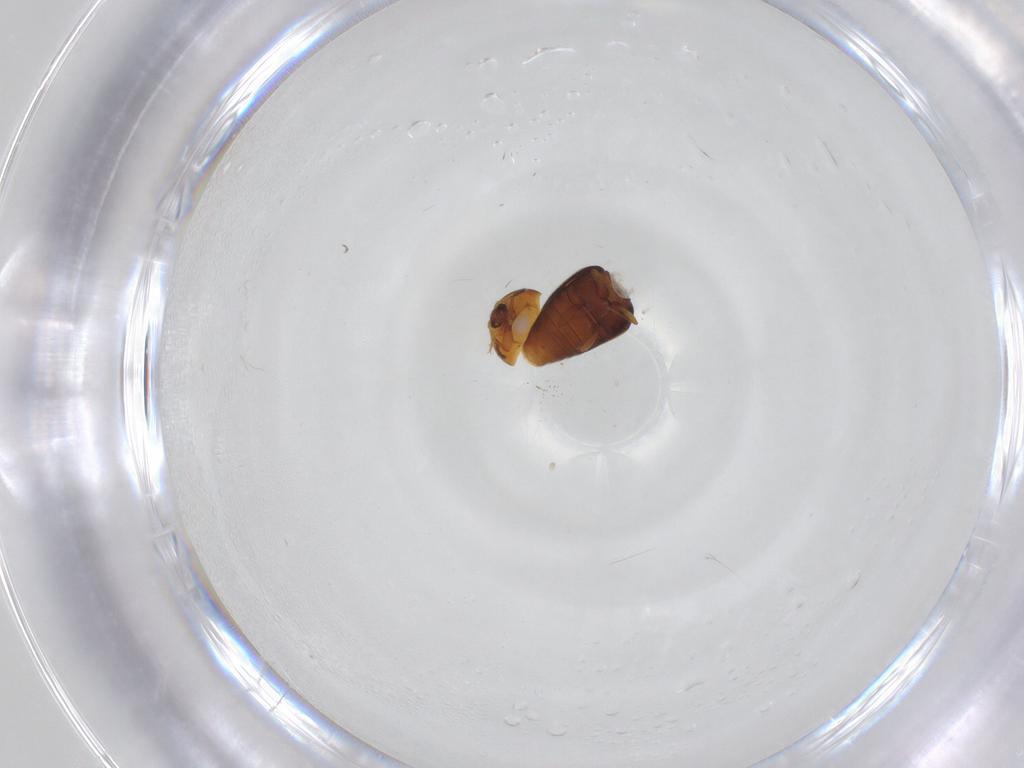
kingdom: Animalia
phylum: Arthropoda
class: Insecta
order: Coleoptera
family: Corylophidae
